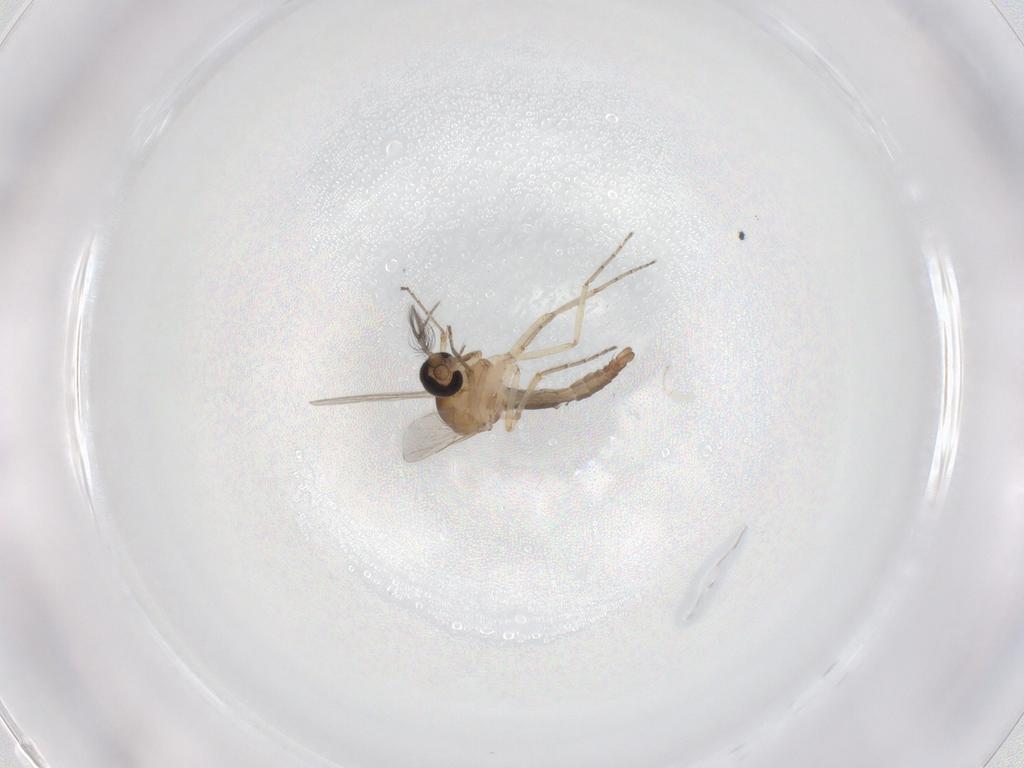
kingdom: Animalia
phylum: Arthropoda
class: Insecta
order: Diptera
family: Ceratopogonidae
